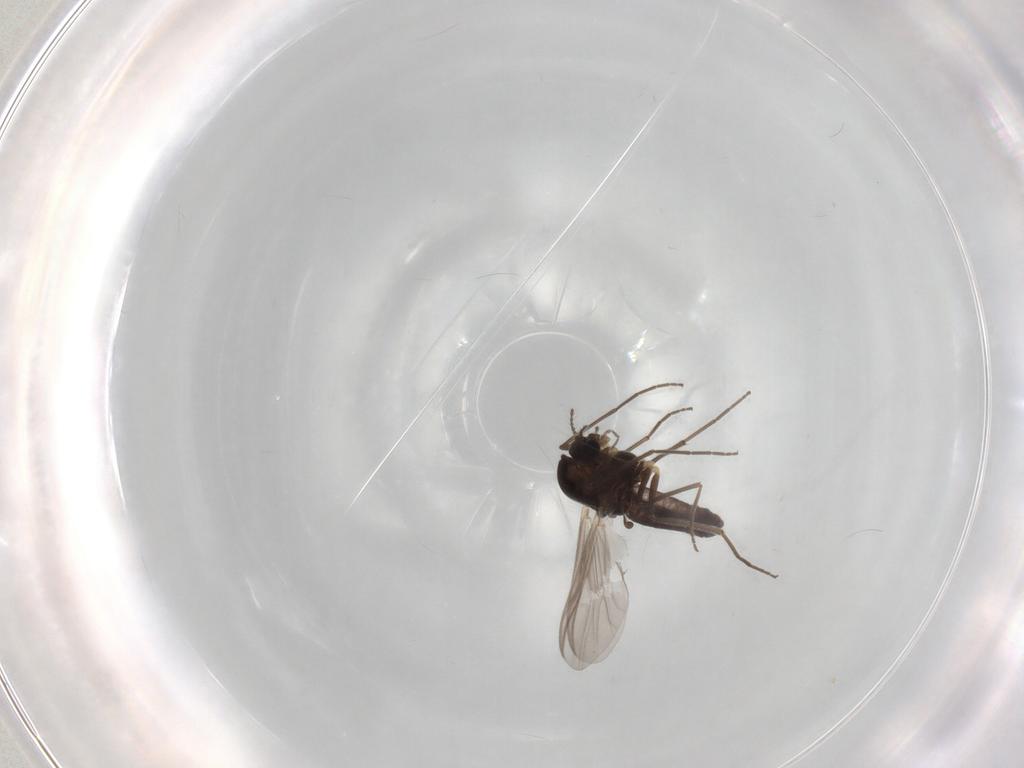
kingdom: Animalia
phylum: Arthropoda
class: Insecta
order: Diptera
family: Chironomidae
